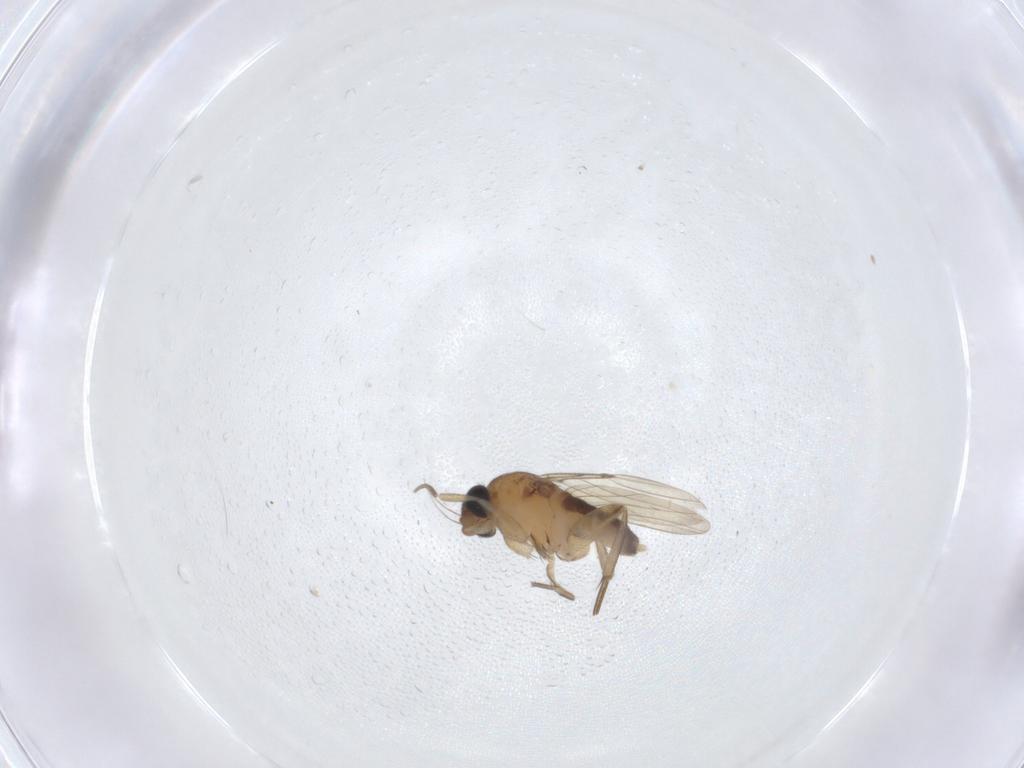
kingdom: Animalia
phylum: Arthropoda
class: Insecta
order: Diptera
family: Phoridae
